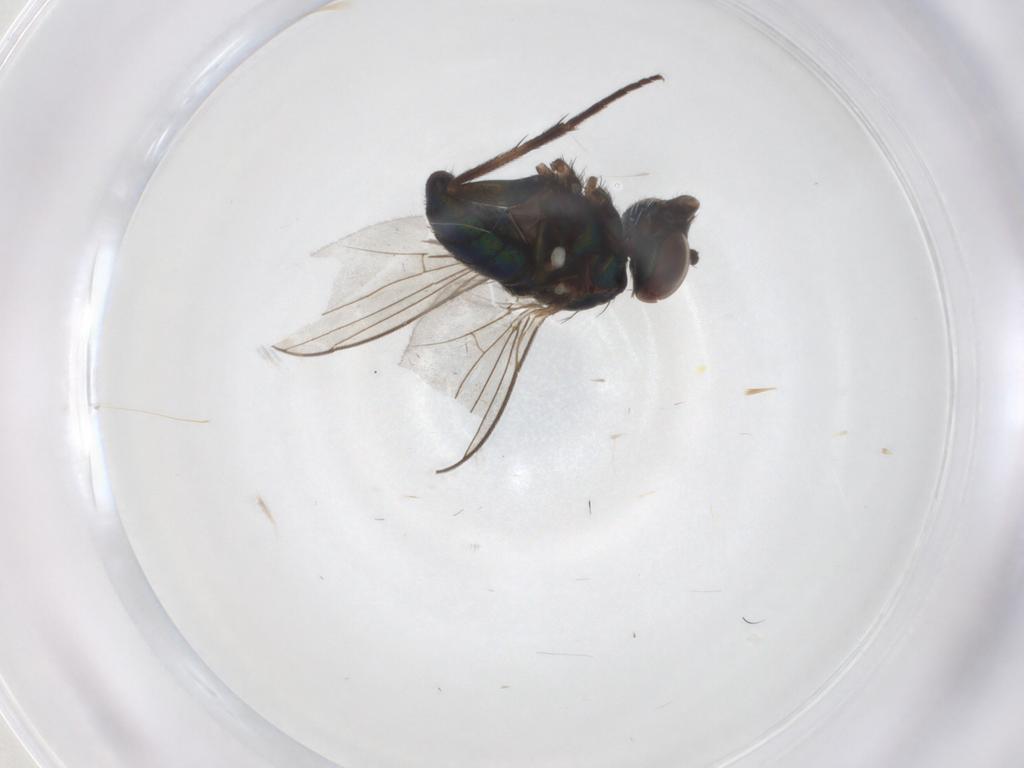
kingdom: Animalia
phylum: Arthropoda
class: Insecta
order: Diptera
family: Dolichopodidae
